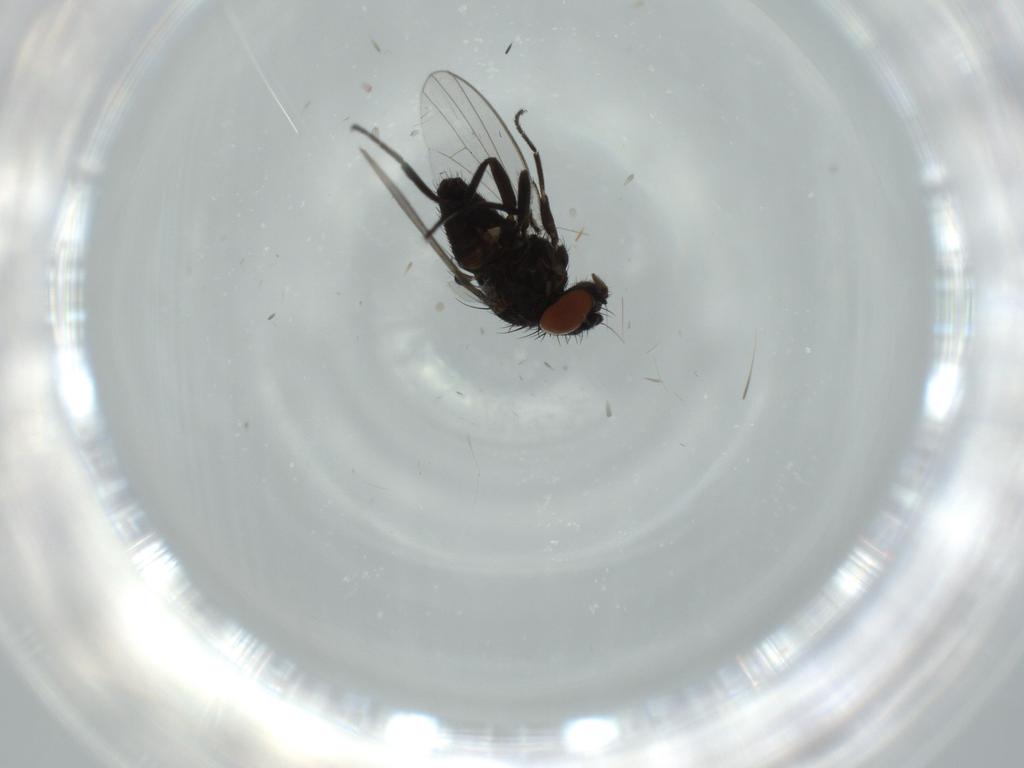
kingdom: Animalia
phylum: Arthropoda
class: Insecta
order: Diptera
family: Milichiidae
